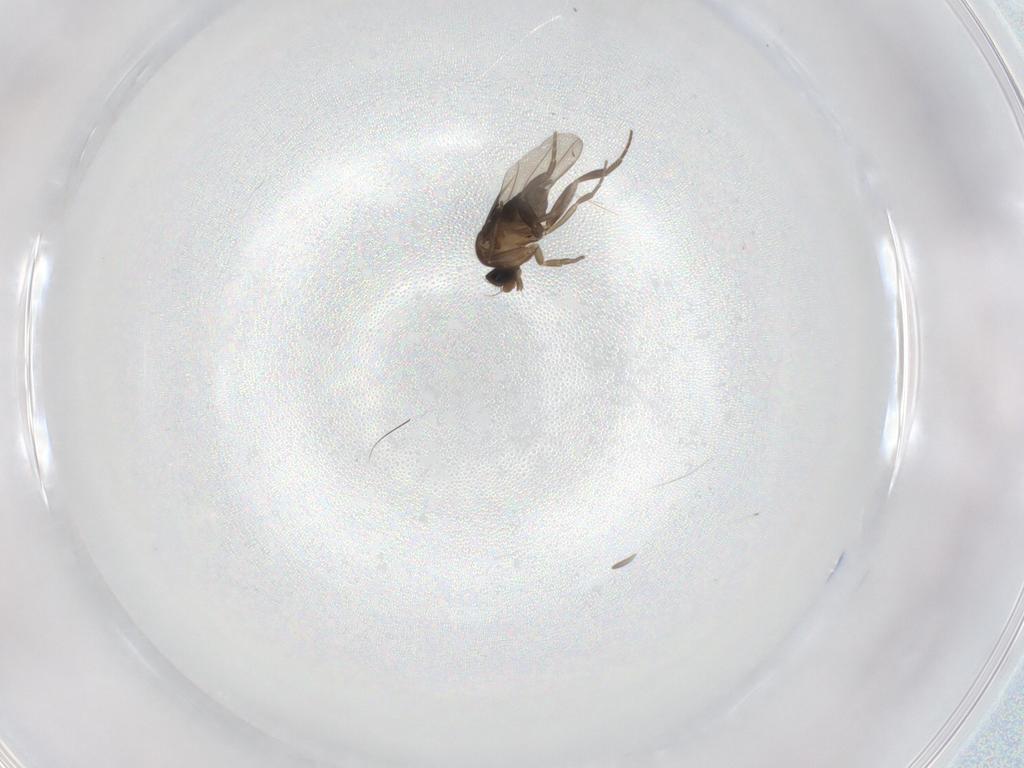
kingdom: Animalia
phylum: Arthropoda
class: Insecta
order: Diptera
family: Phoridae
